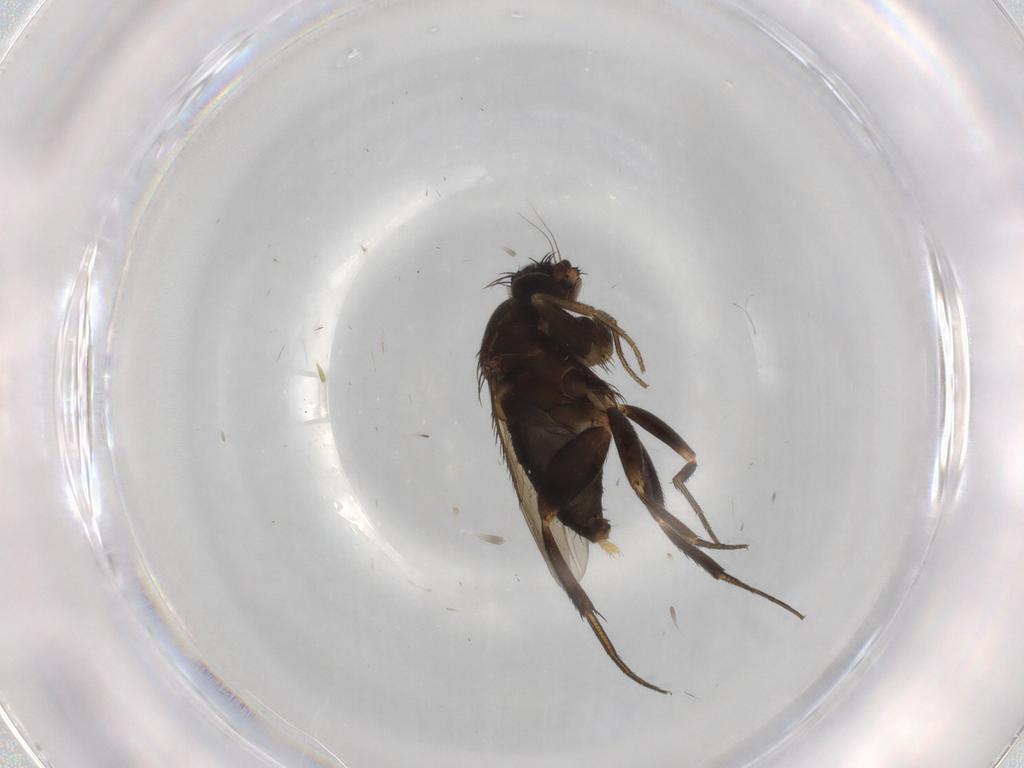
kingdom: Animalia
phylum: Arthropoda
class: Insecta
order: Diptera
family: Phoridae
